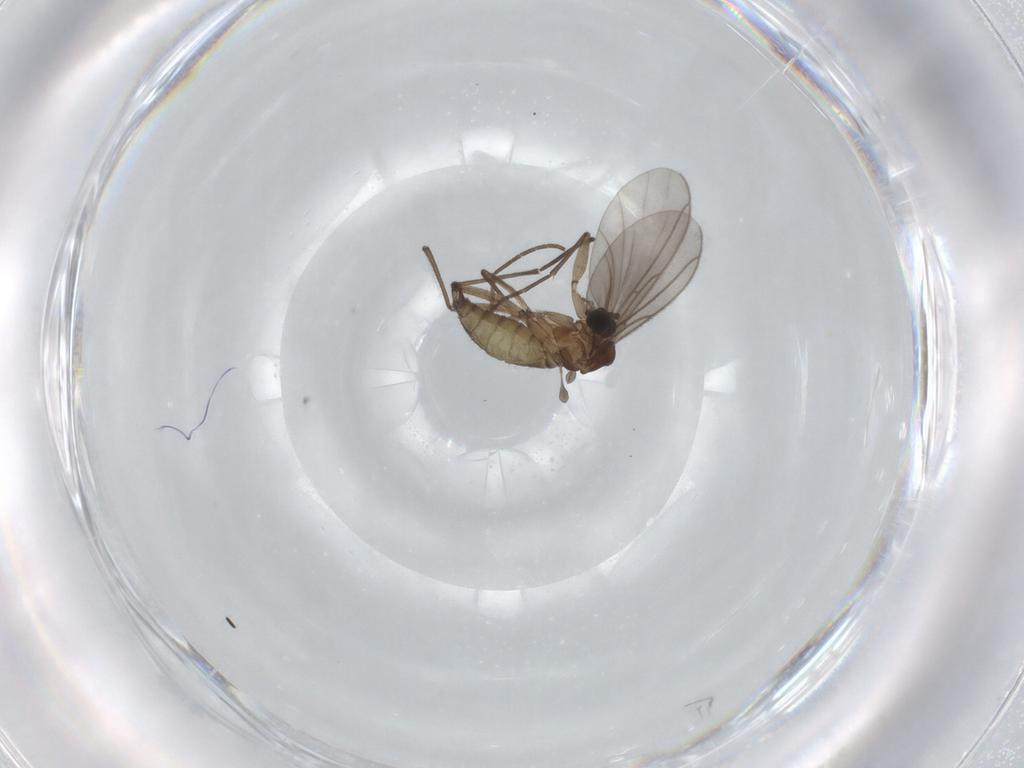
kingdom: Animalia
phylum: Arthropoda
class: Insecta
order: Diptera
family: Sciaridae
